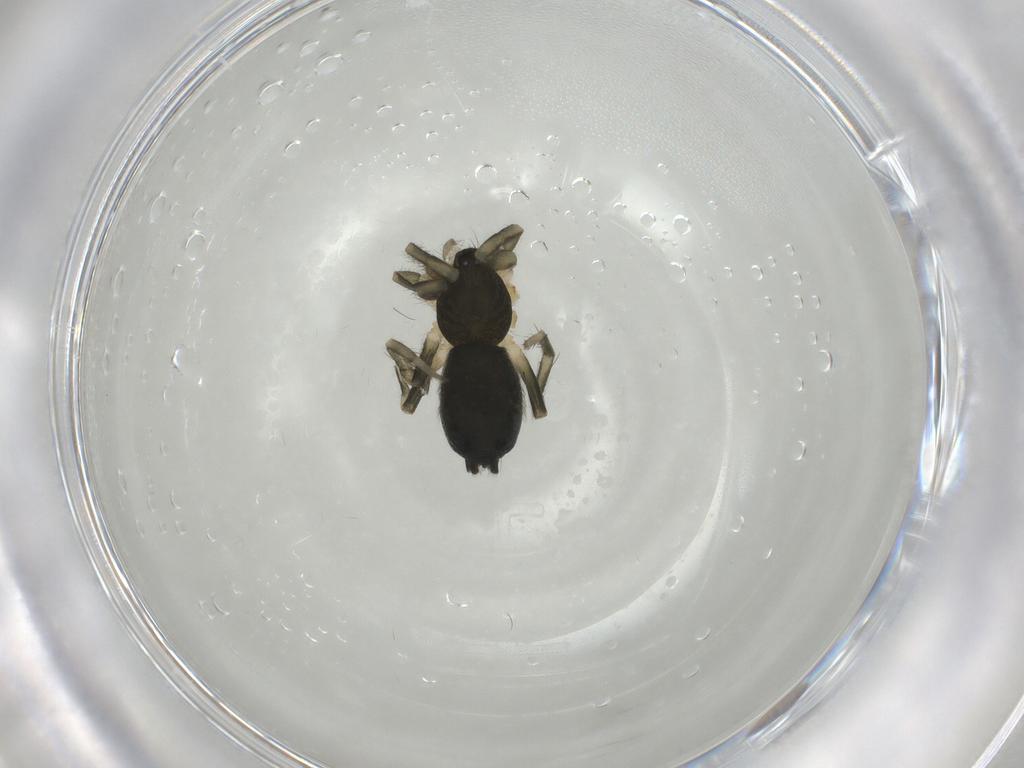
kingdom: Animalia
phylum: Arthropoda
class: Arachnida
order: Araneae
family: Gnaphosidae
